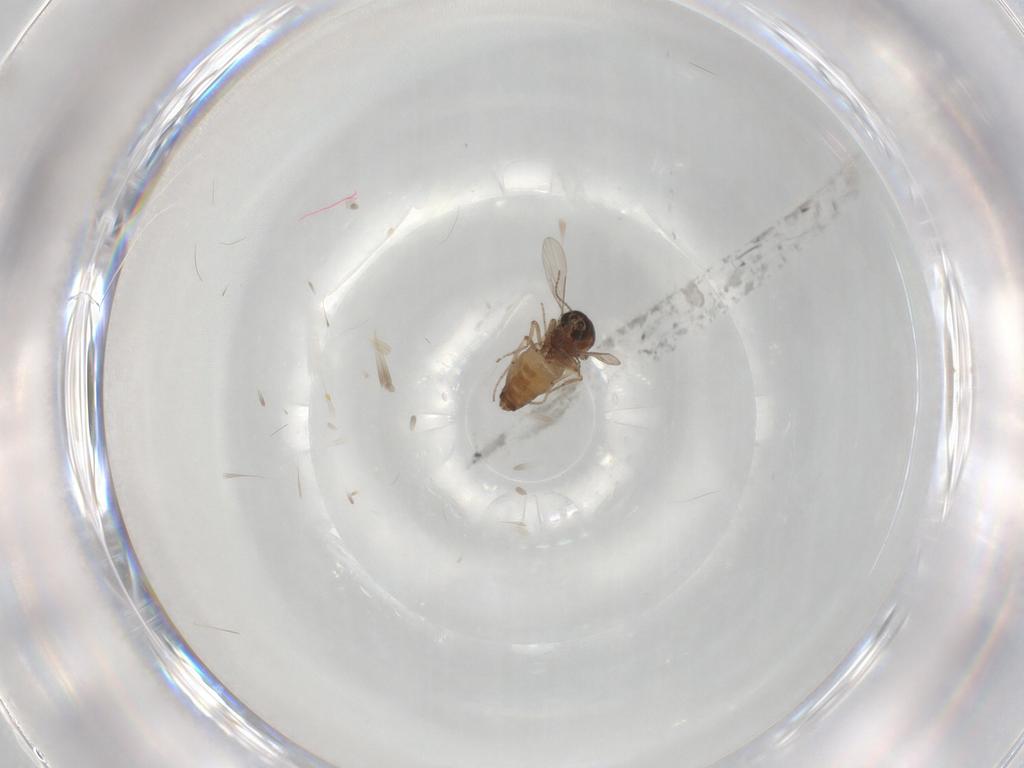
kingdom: Animalia
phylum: Arthropoda
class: Insecta
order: Diptera
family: Ceratopogonidae
